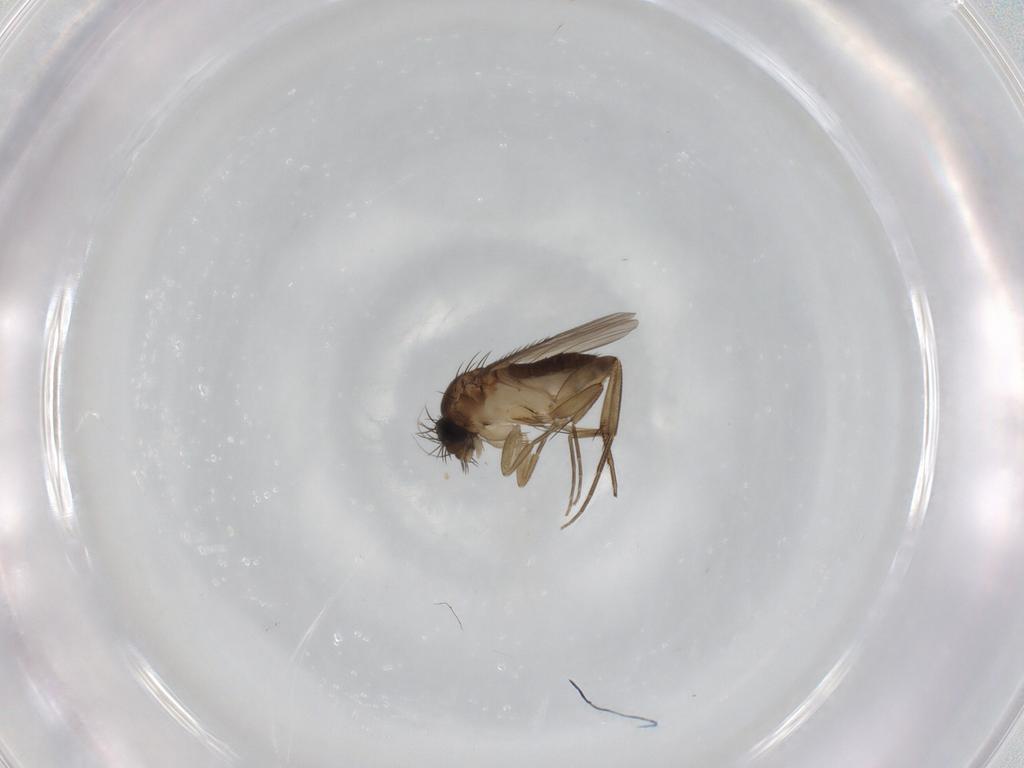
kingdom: Animalia
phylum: Arthropoda
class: Insecta
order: Diptera
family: Phoridae
